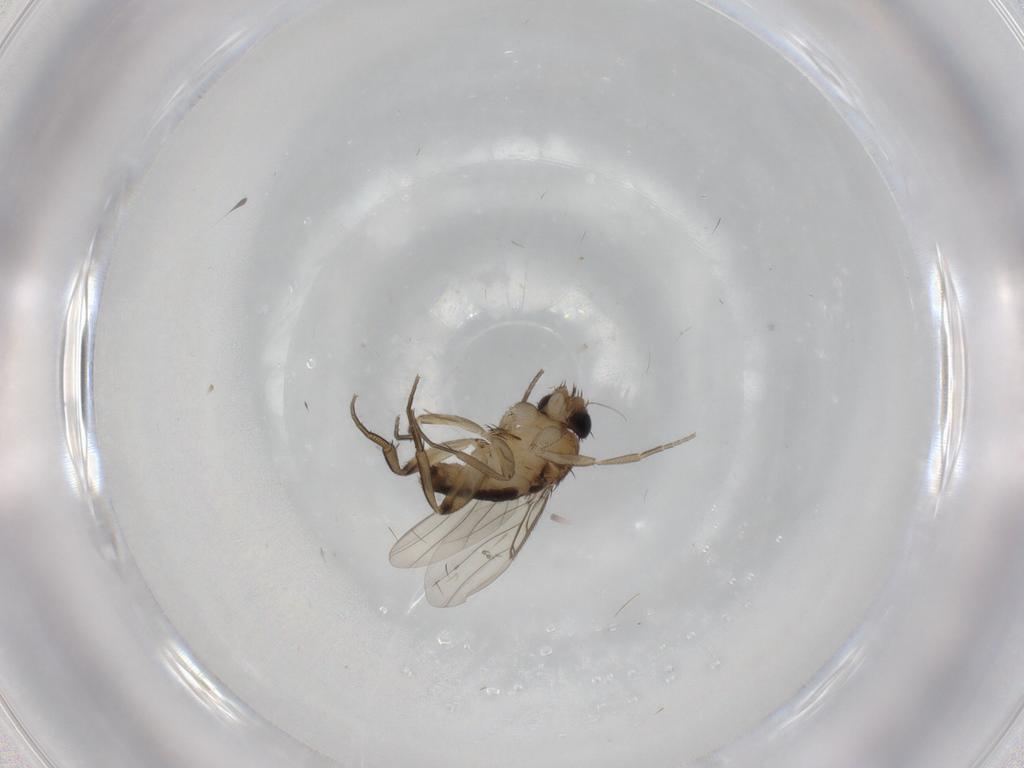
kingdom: Animalia
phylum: Arthropoda
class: Insecta
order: Diptera
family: Cecidomyiidae
